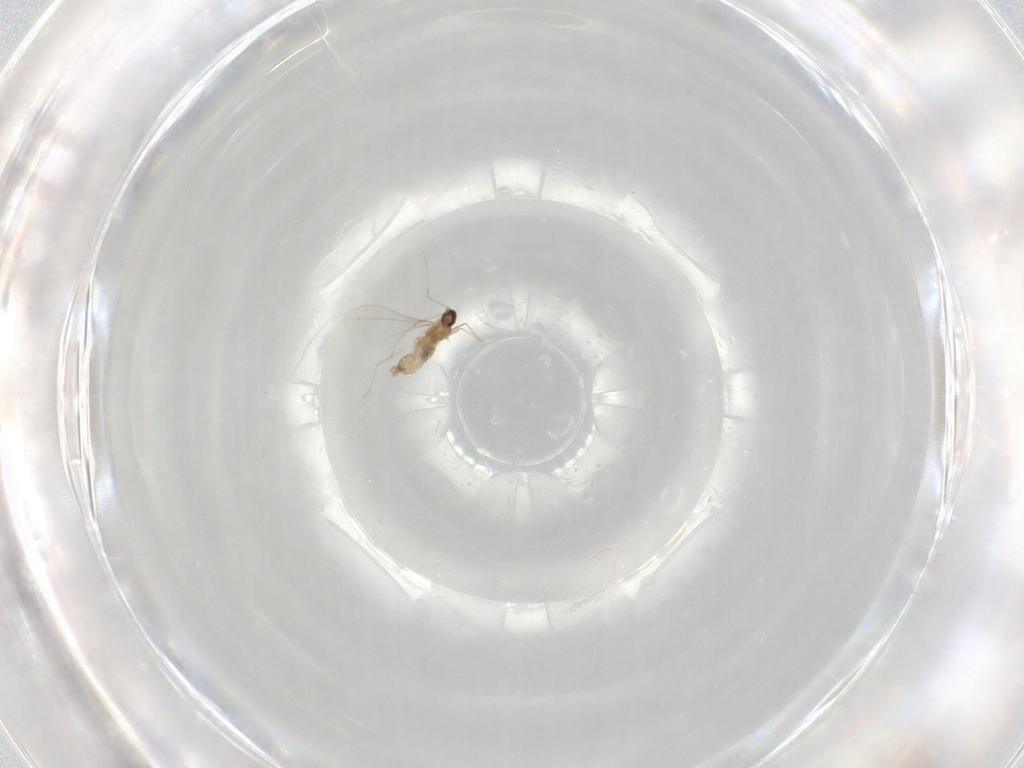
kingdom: Animalia
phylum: Arthropoda
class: Insecta
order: Diptera
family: Cecidomyiidae
